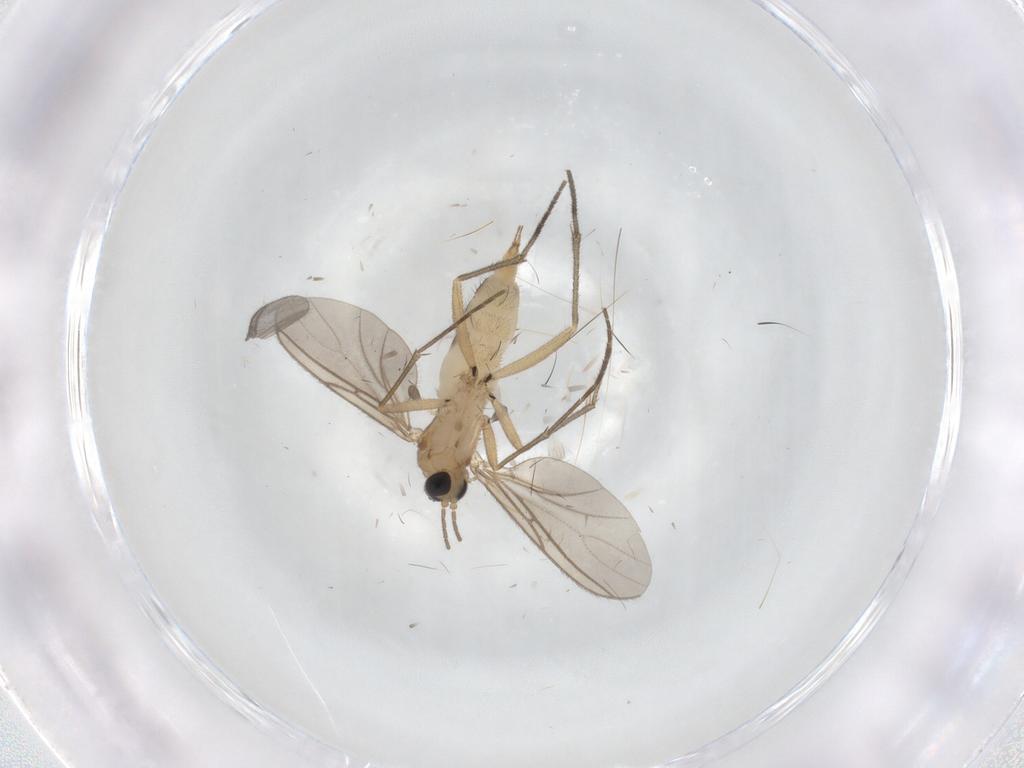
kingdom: Animalia
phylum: Arthropoda
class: Insecta
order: Diptera
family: Sciaridae
